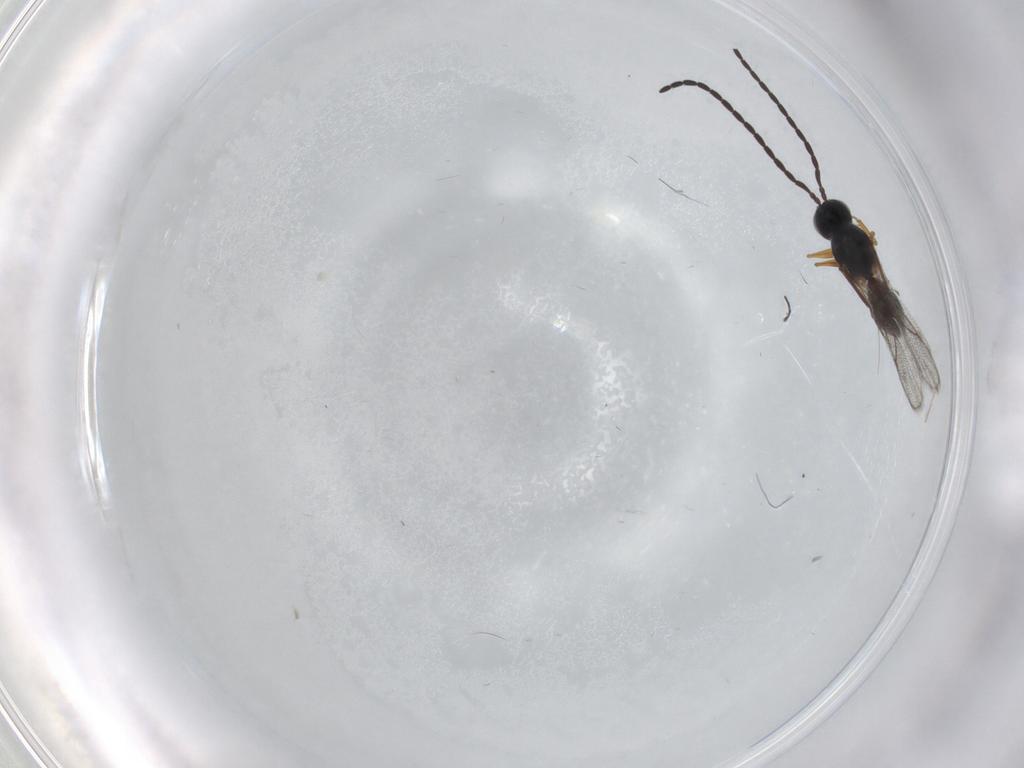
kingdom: Animalia
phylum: Arthropoda
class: Insecta
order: Hymenoptera
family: Figitidae
